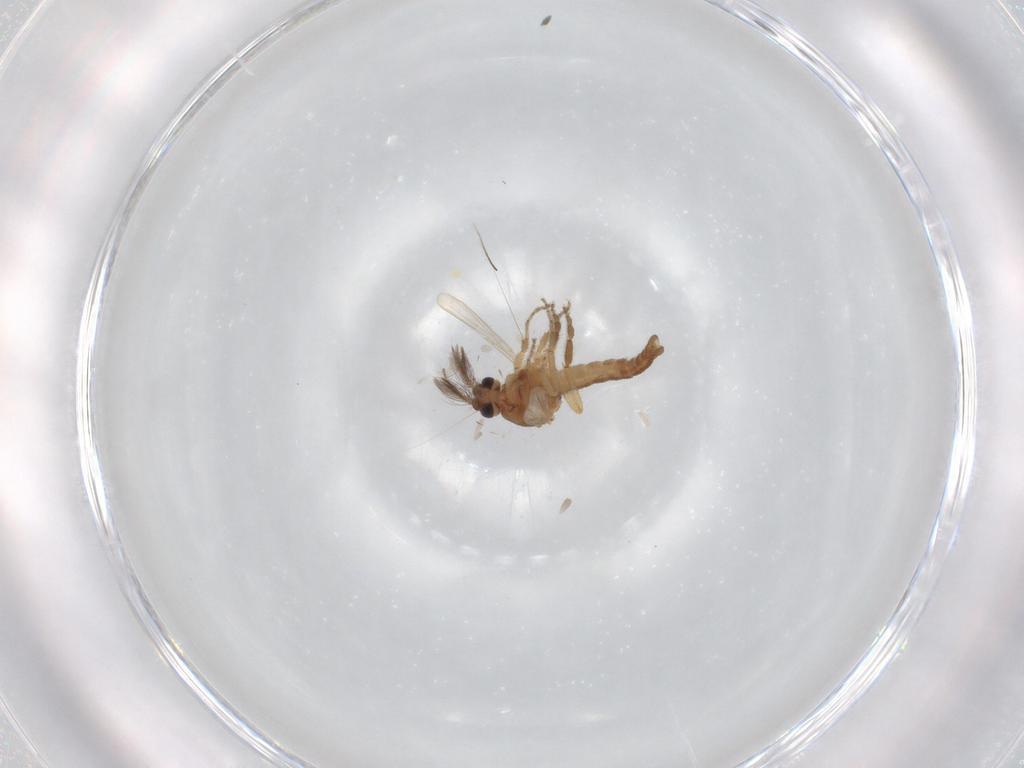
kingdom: Animalia
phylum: Arthropoda
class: Insecta
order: Diptera
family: Ceratopogonidae
